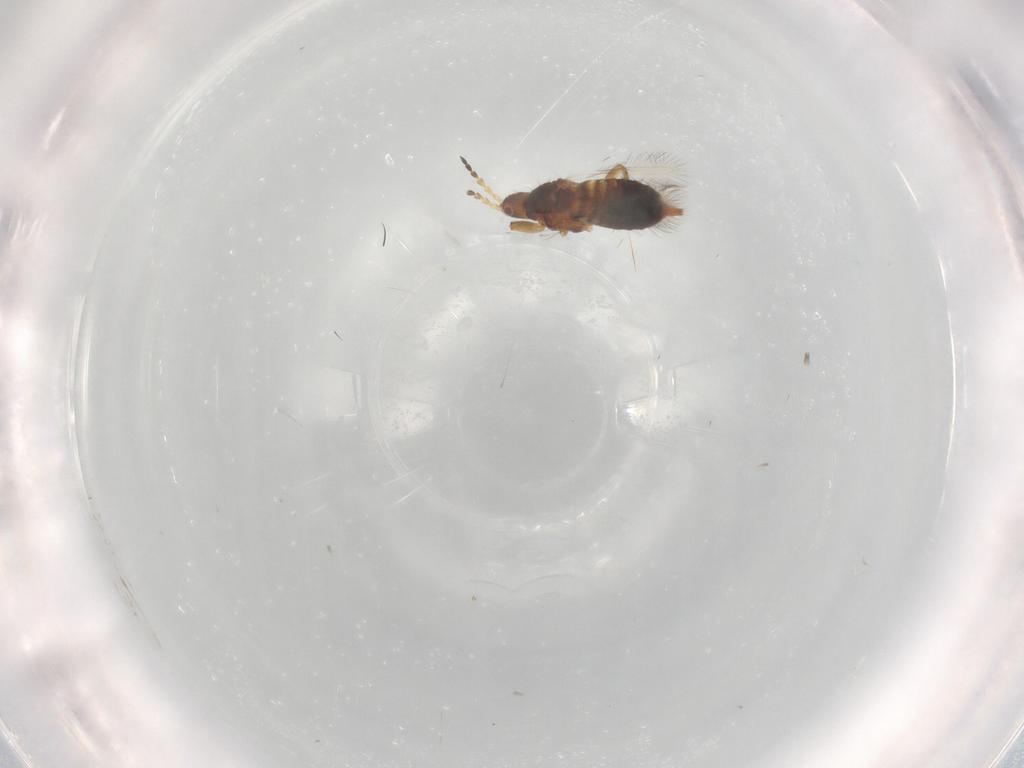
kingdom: Animalia
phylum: Arthropoda
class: Insecta
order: Thysanoptera
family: Phlaeothripidae
